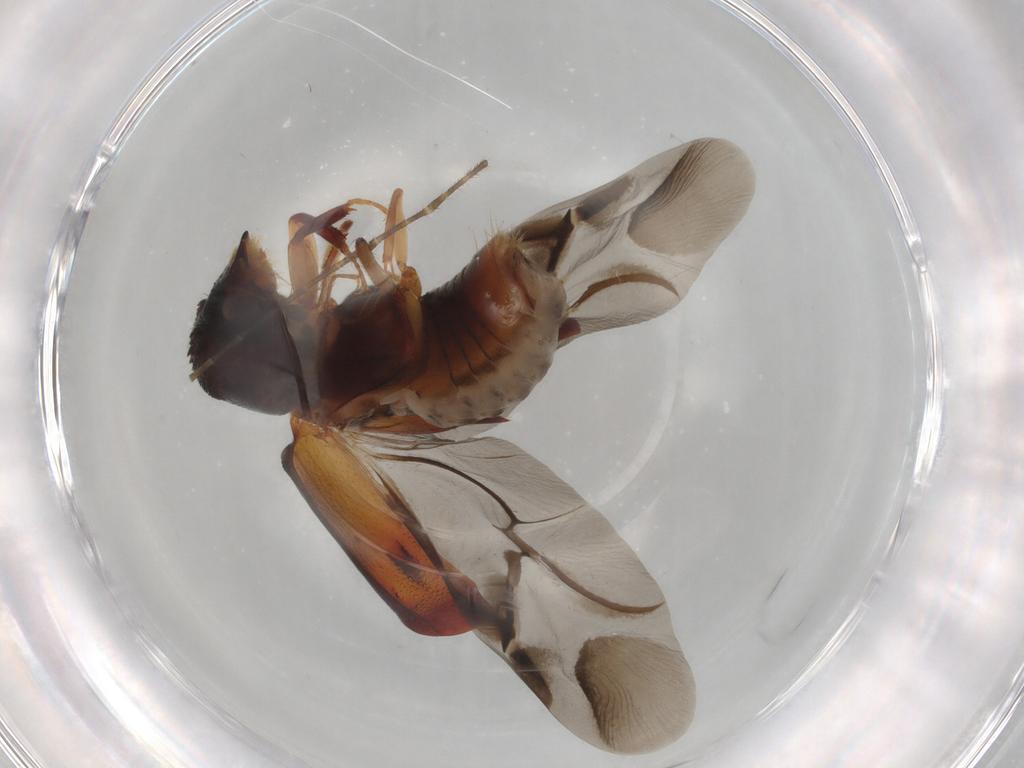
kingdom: Animalia
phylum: Arthropoda
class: Insecta
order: Coleoptera
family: Bostrichidae
